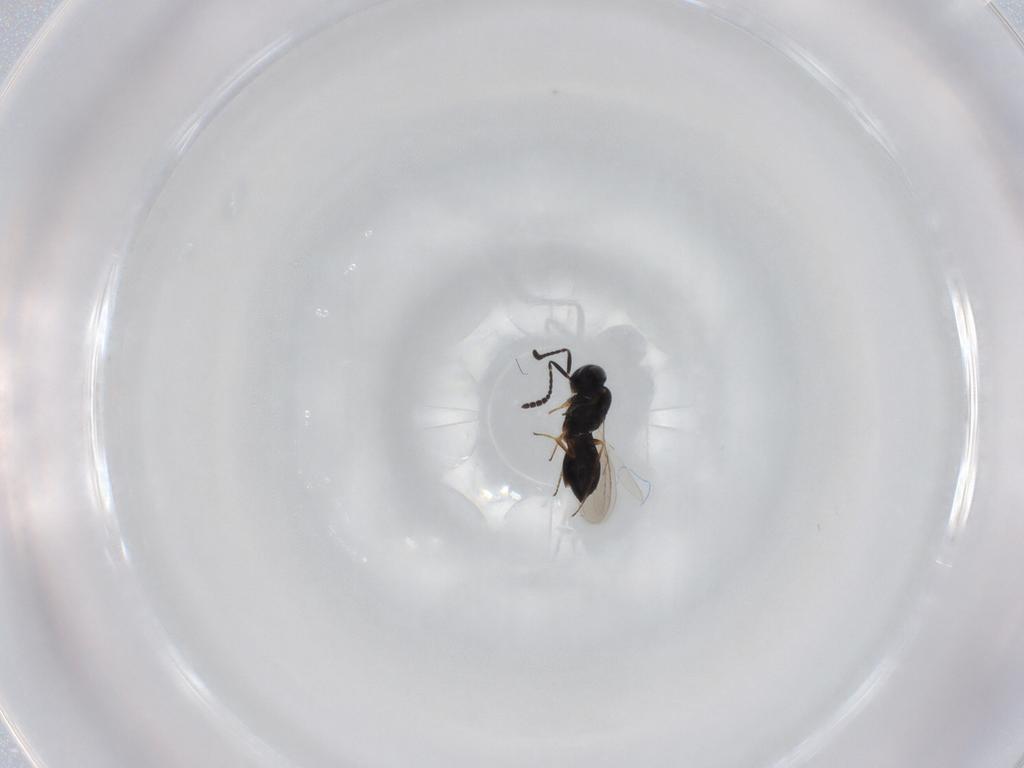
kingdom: Animalia
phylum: Arthropoda
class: Insecta
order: Hymenoptera
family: Scelionidae
